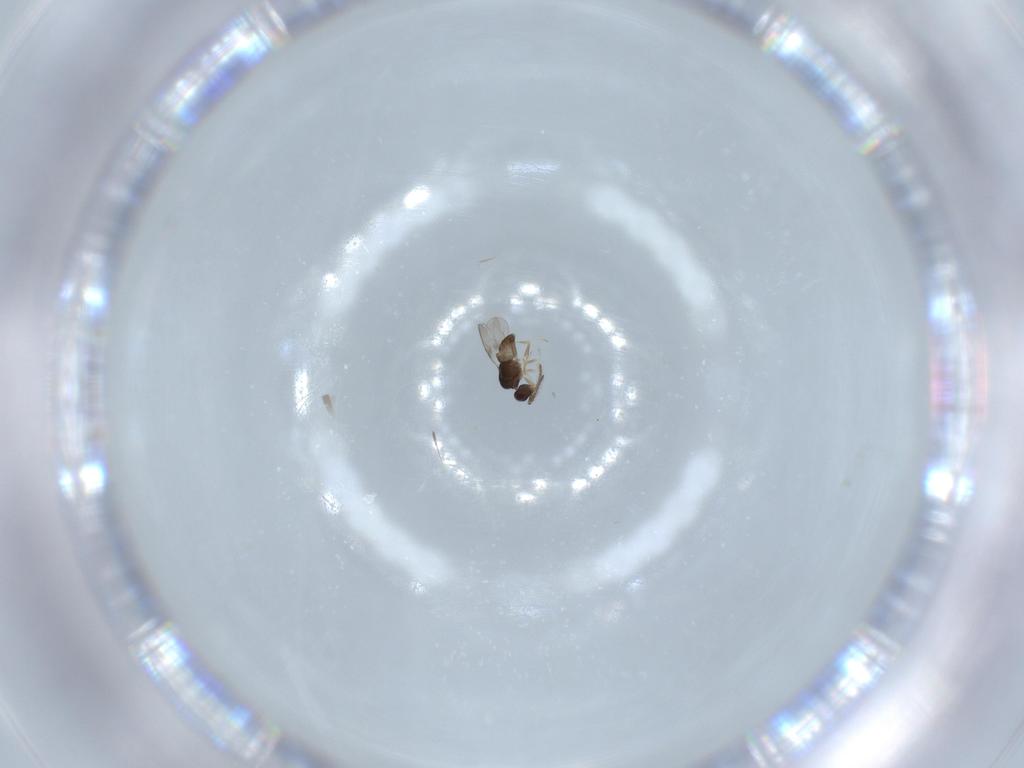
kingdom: Animalia
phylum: Arthropoda
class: Insecta
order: Hymenoptera
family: Ceraphronidae
